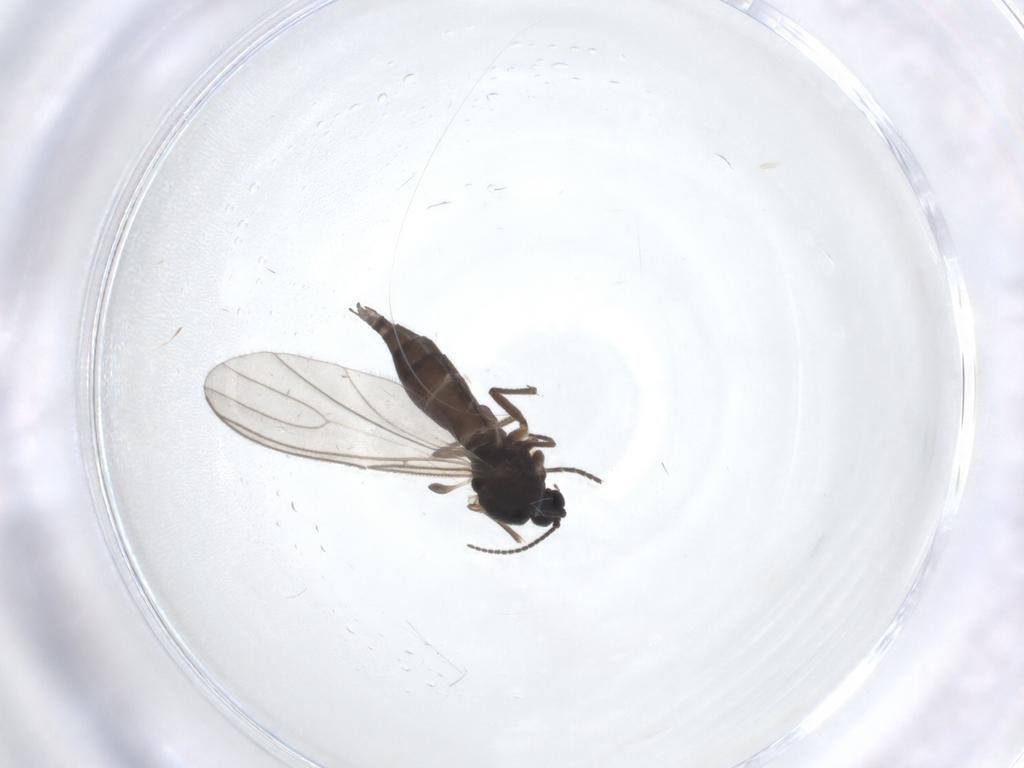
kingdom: Animalia
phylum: Arthropoda
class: Insecta
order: Diptera
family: Sciaridae
